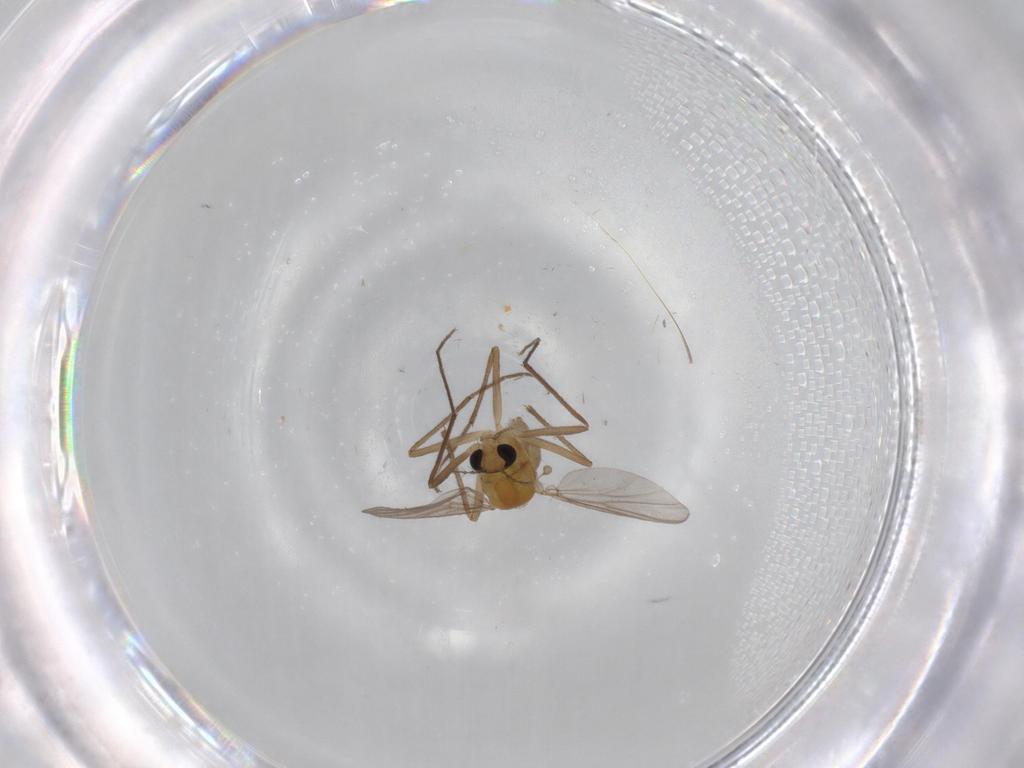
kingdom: Animalia
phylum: Arthropoda
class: Insecta
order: Diptera
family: Chironomidae
